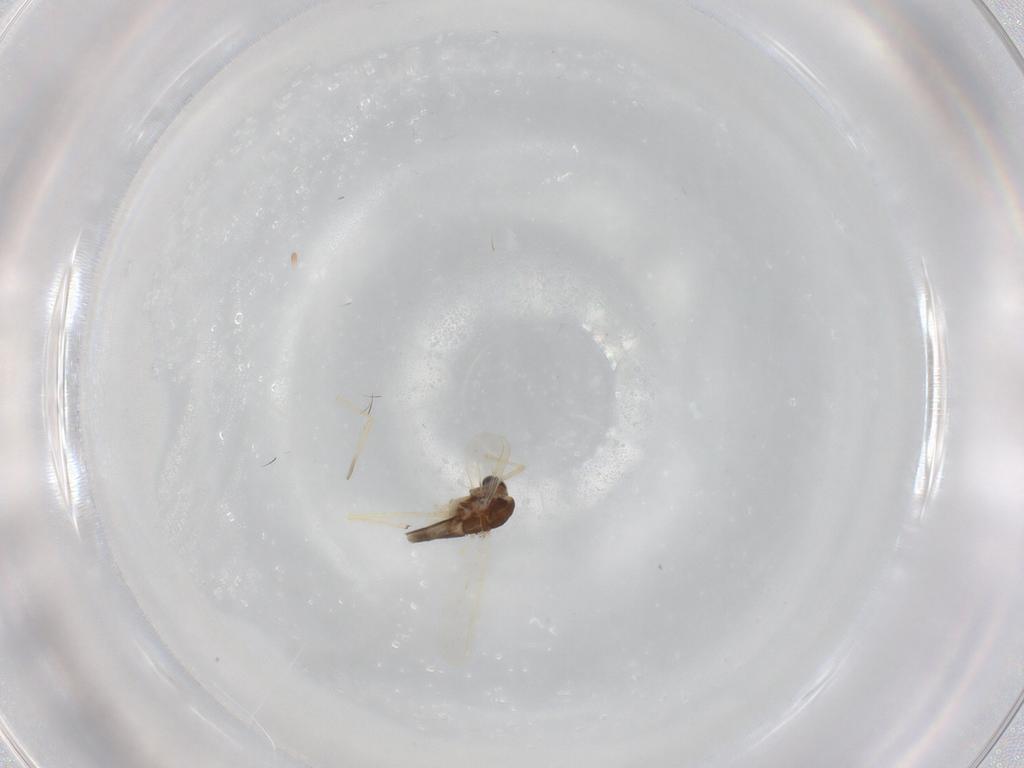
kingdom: Animalia
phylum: Arthropoda
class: Insecta
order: Diptera
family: Chironomidae
